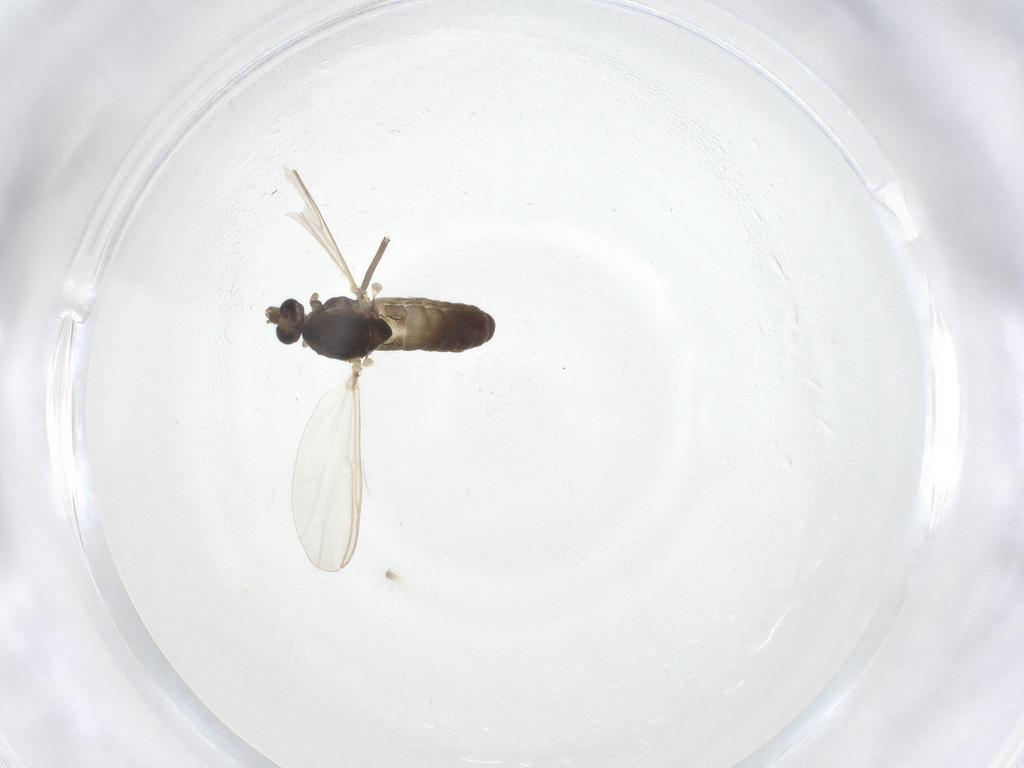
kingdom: Animalia
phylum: Arthropoda
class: Insecta
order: Diptera
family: Chironomidae
